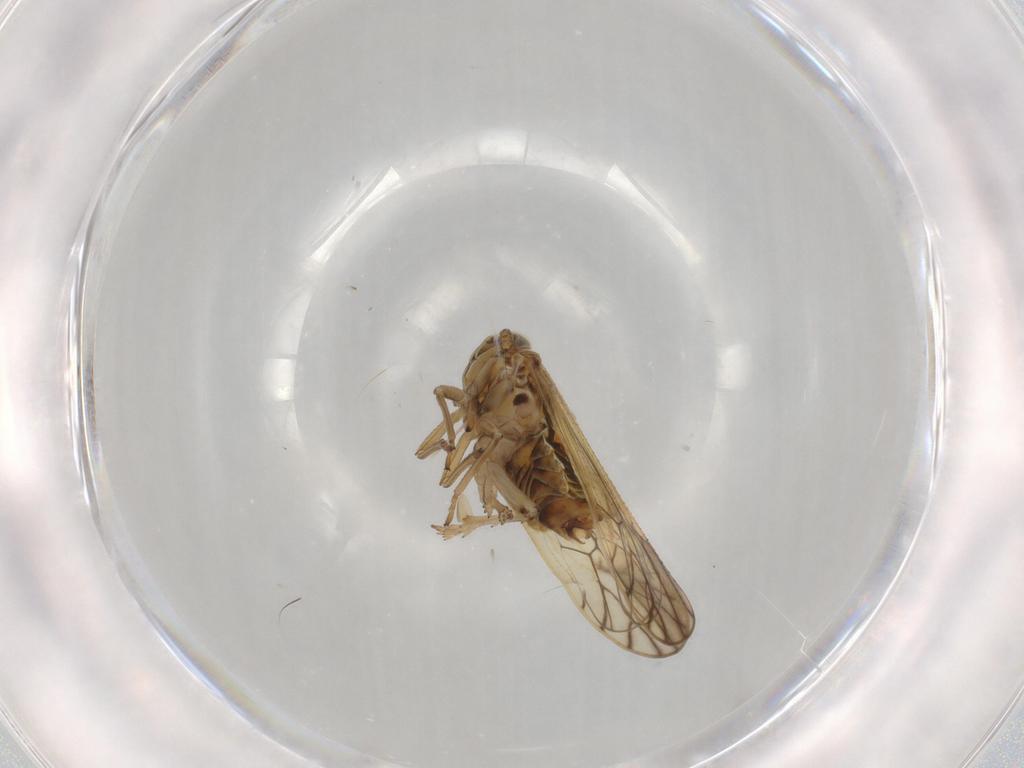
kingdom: Animalia
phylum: Arthropoda
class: Insecta
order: Hemiptera
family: Delphacidae
